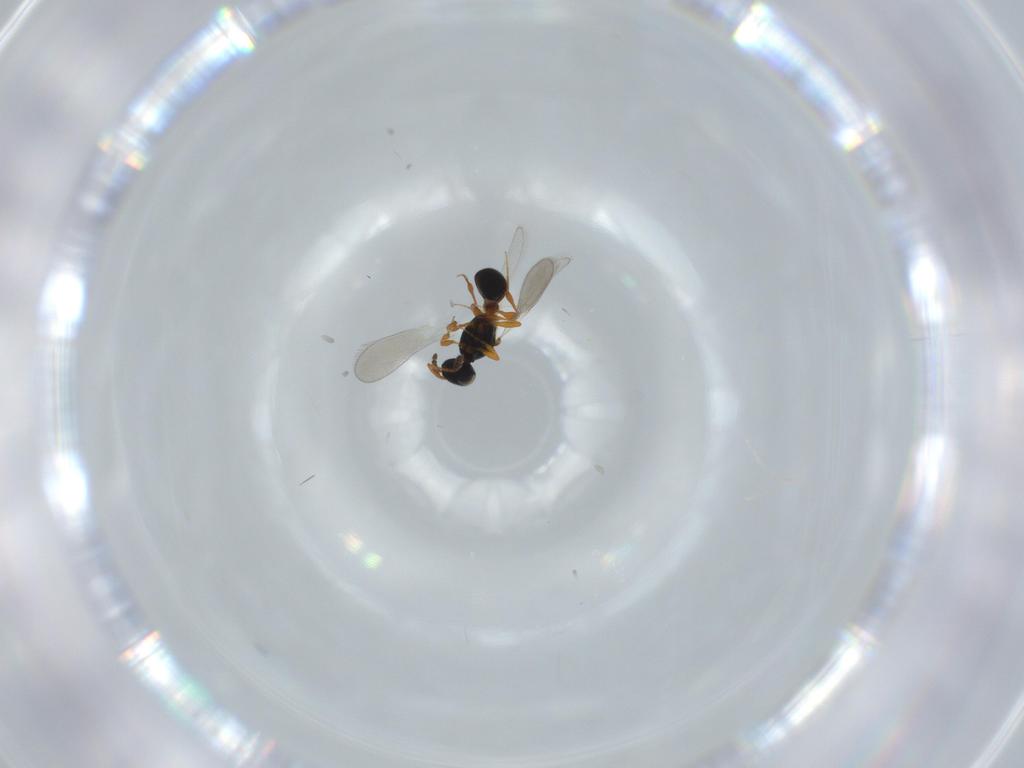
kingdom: Animalia
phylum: Arthropoda
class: Insecta
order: Hymenoptera
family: Platygastridae
